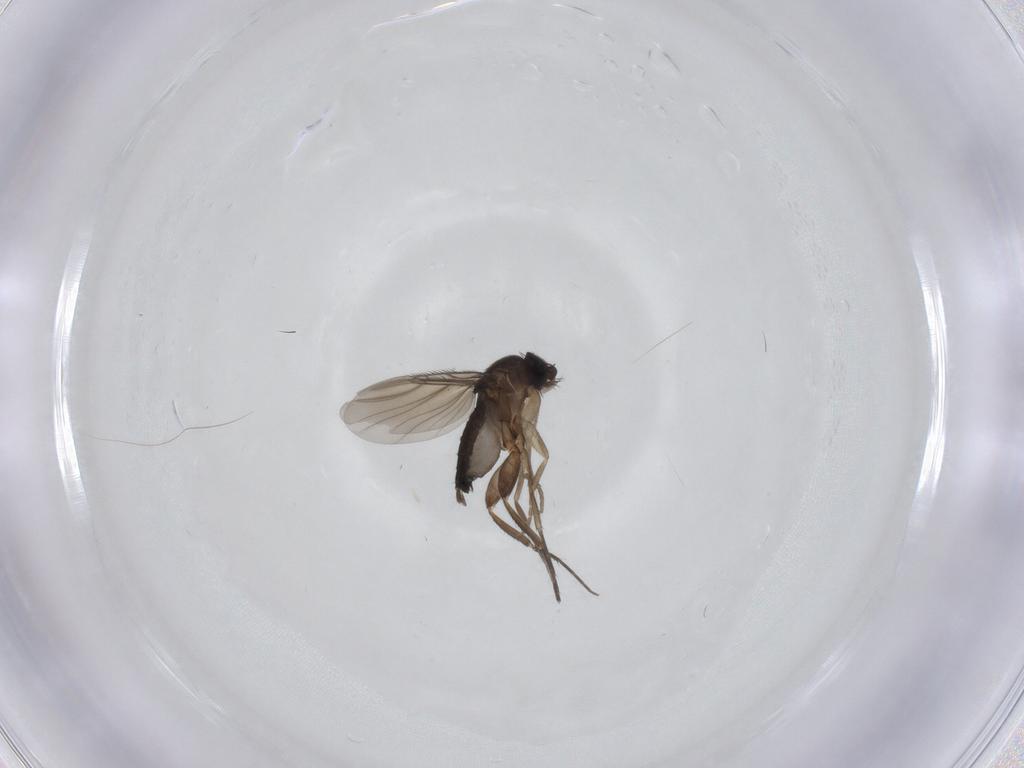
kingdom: Animalia
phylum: Arthropoda
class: Insecta
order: Diptera
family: Phoridae
